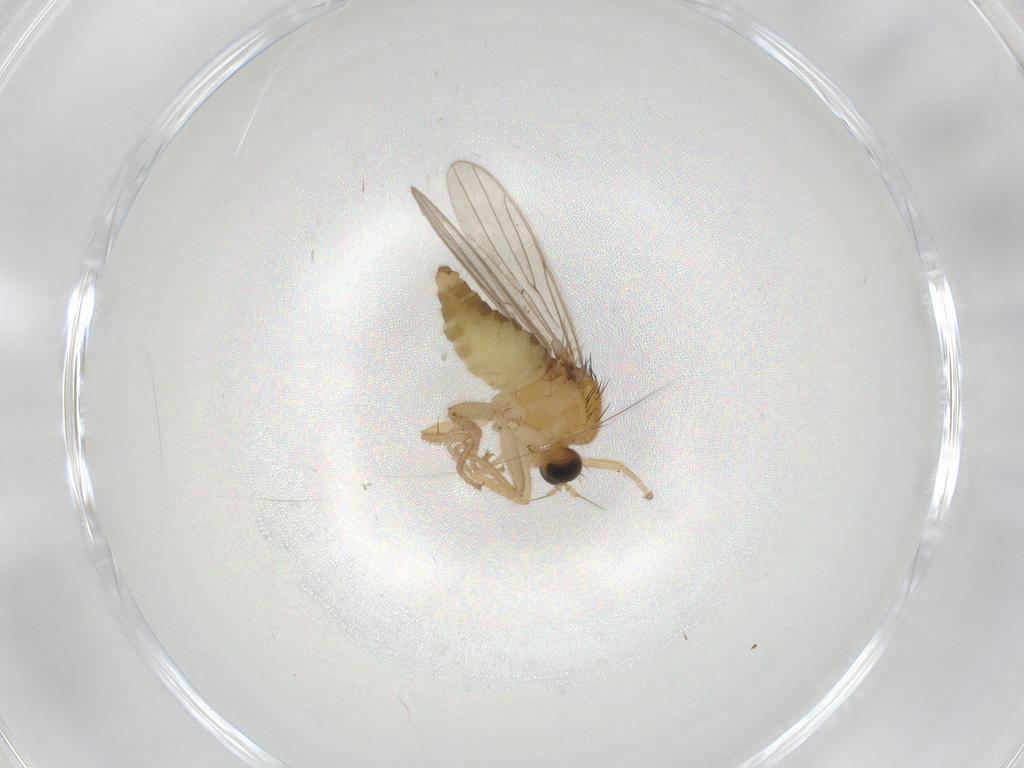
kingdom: Animalia
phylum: Arthropoda
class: Insecta
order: Diptera
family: Hybotidae
